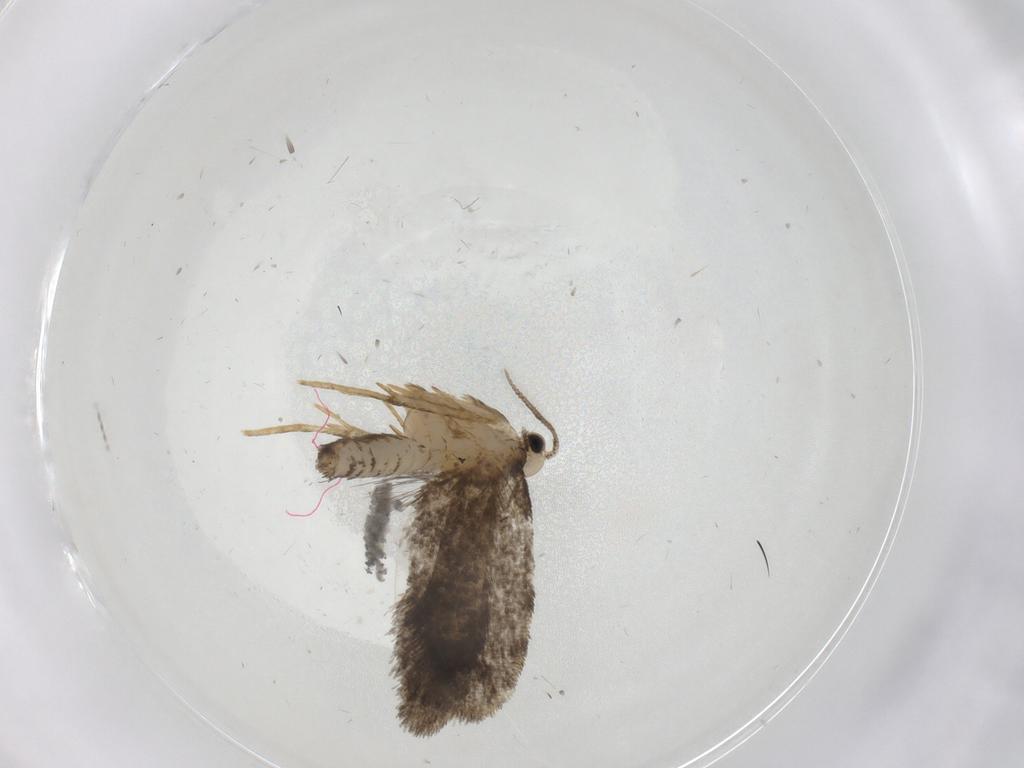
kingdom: Animalia
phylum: Arthropoda
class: Insecta
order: Lepidoptera
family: Psychidae
